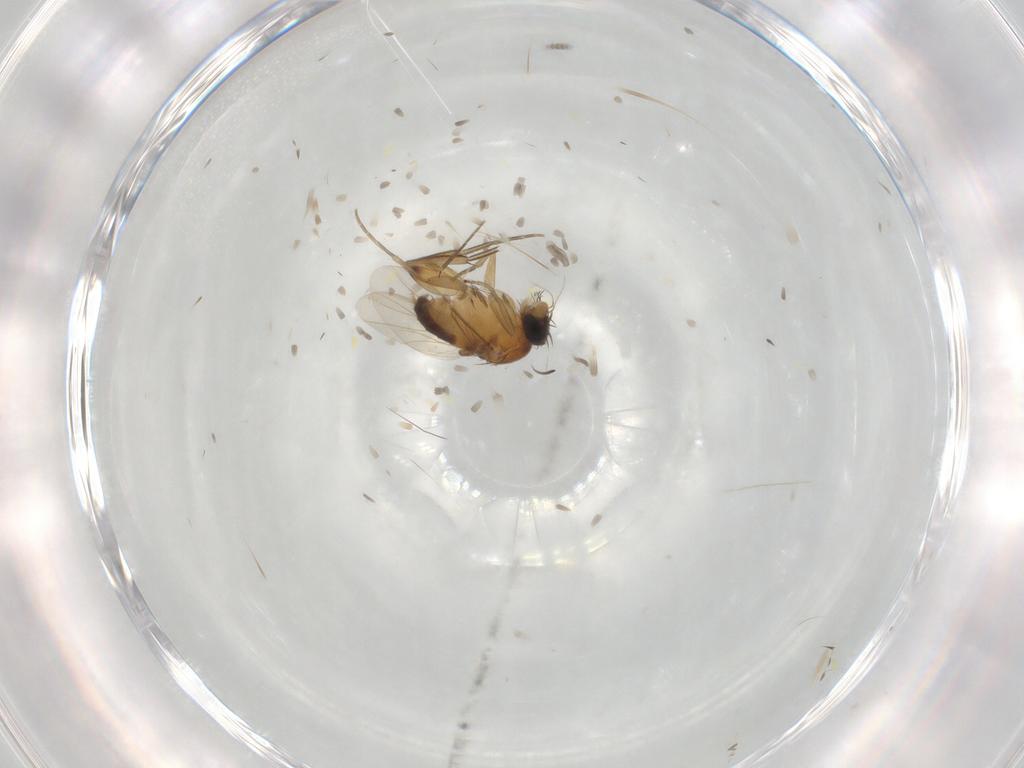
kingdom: Animalia
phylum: Arthropoda
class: Insecta
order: Diptera
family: Chloropidae
